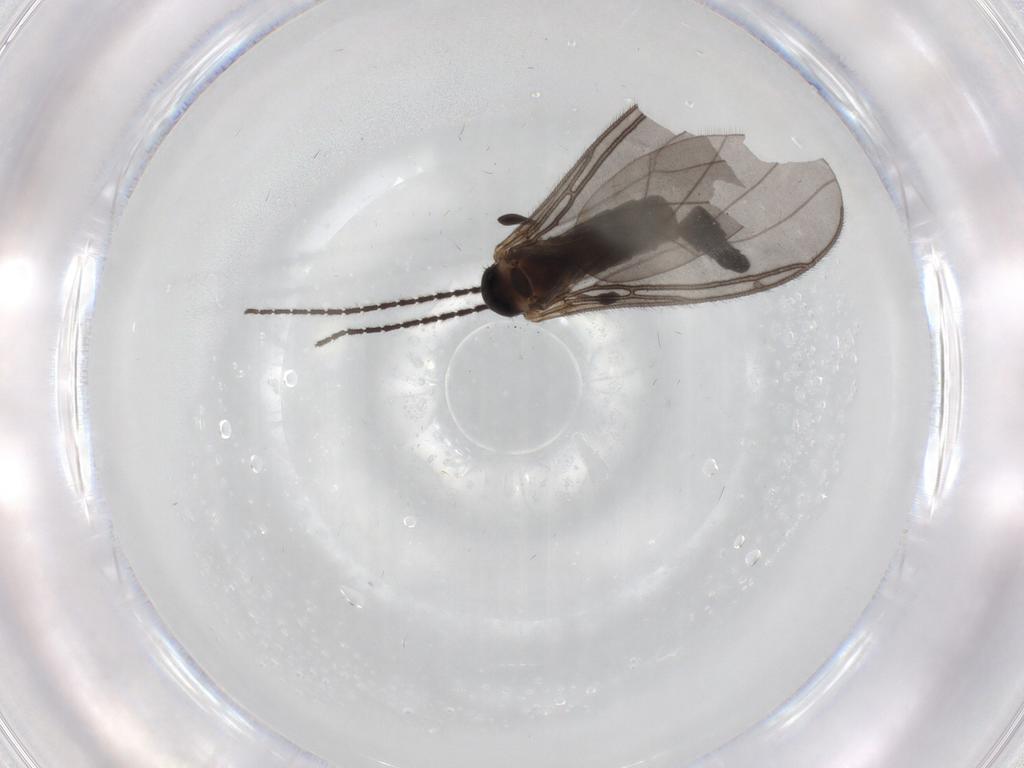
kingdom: Animalia
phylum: Arthropoda
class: Insecta
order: Diptera
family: Sciaridae
